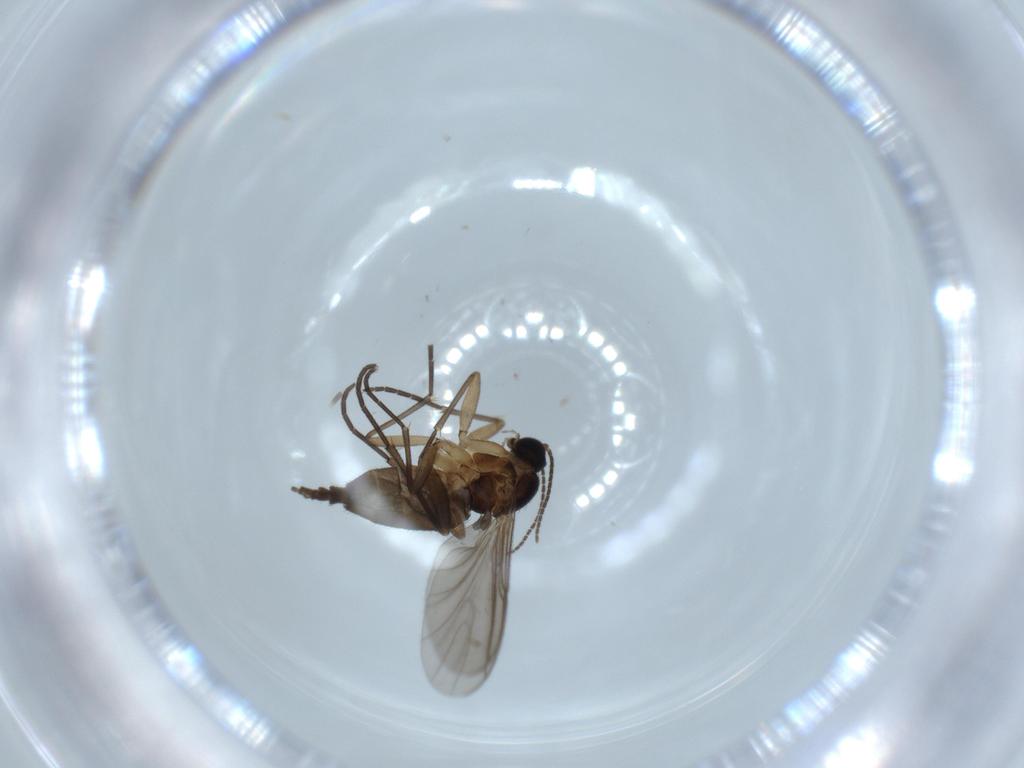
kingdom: Animalia
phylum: Arthropoda
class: Insecta
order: Diptera
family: Sciaridae
